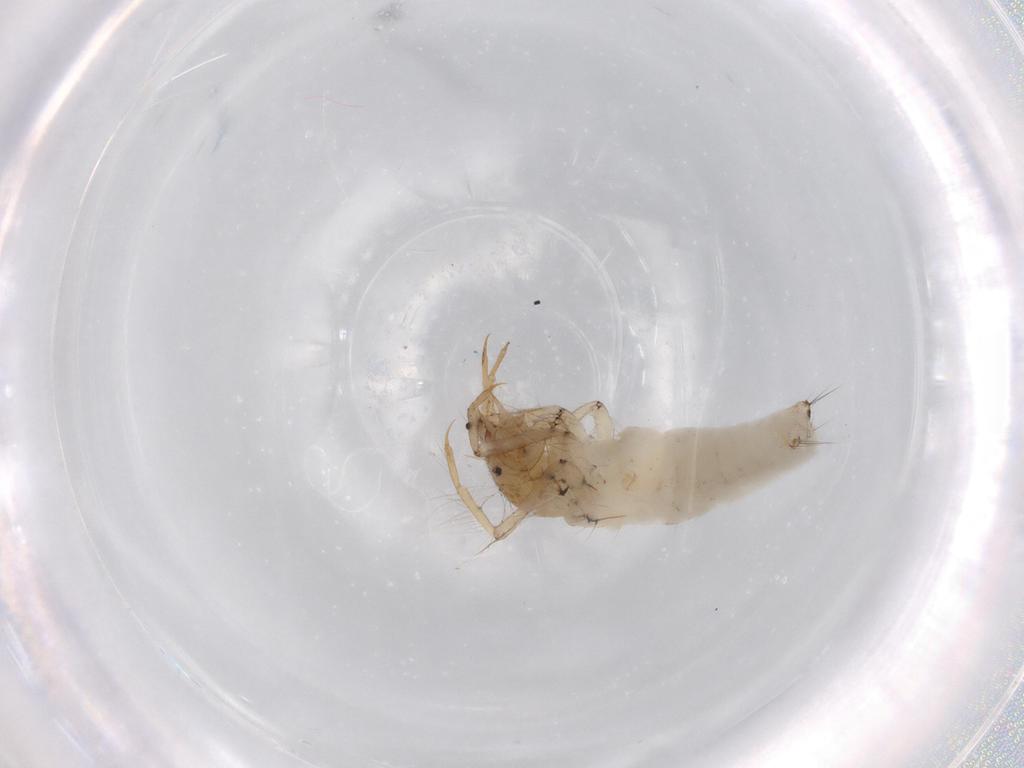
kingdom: Animalia
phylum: Arthropoda
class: Insecta
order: Trichoptera
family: Leptoceridae
